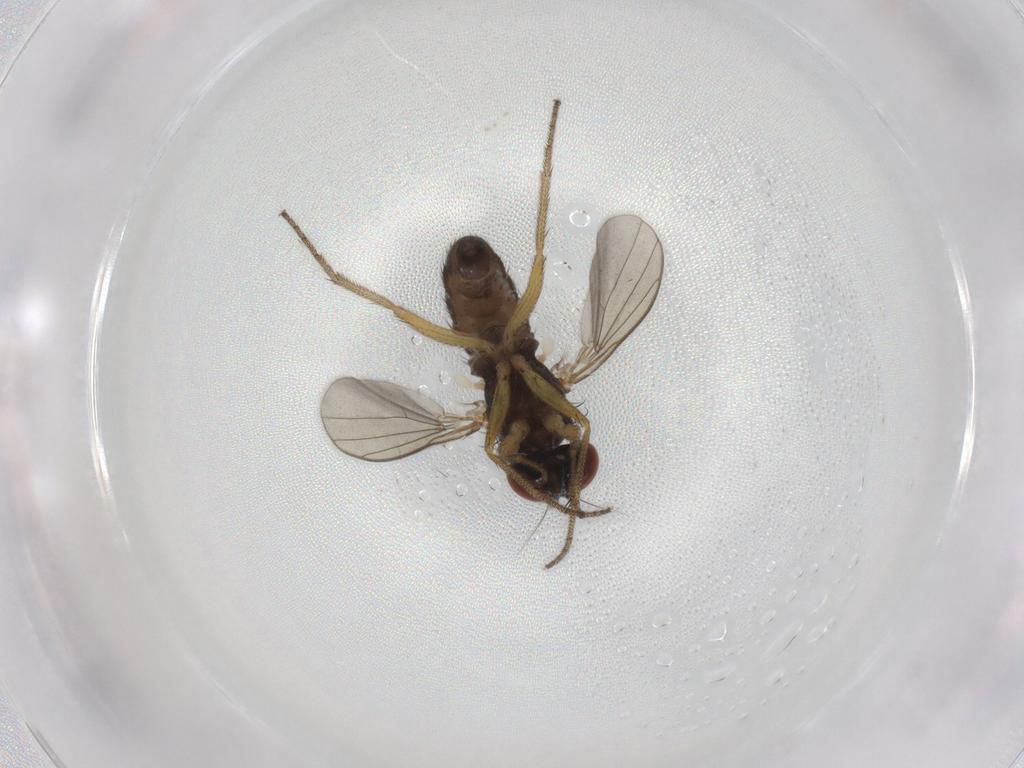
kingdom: Animalia
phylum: Arthropoda
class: Insecta
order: Diptera
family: Dolichopodidae
